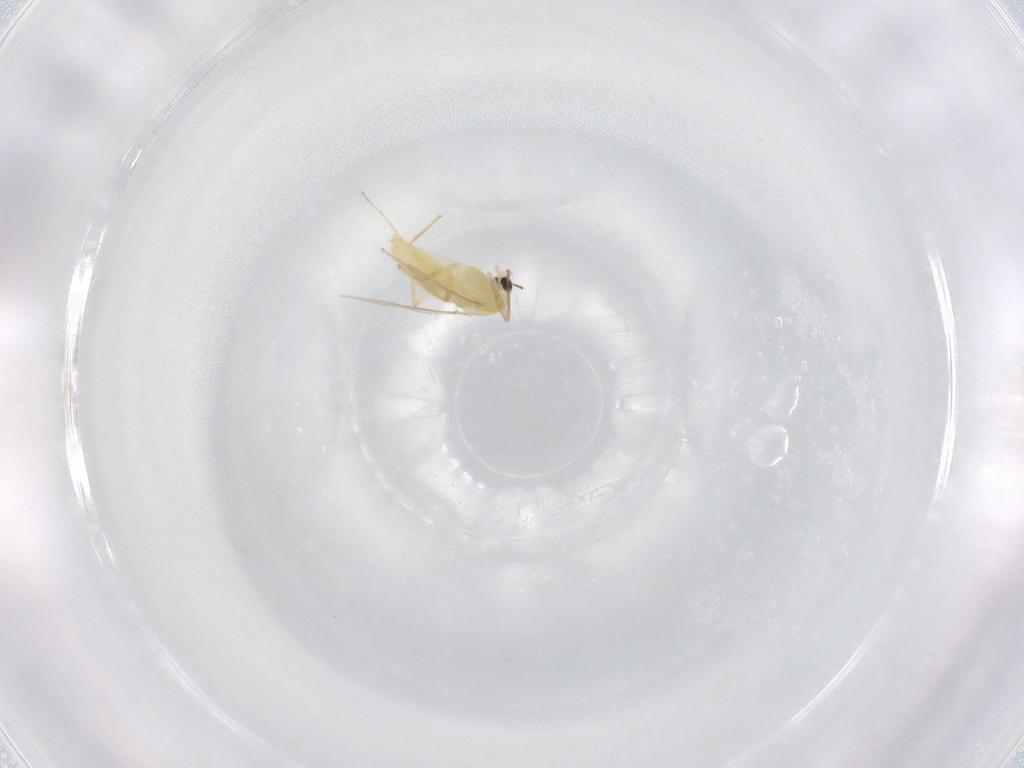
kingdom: Animalia
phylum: Arthropoda
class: Insecta
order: Diptera
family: Chironomidae
